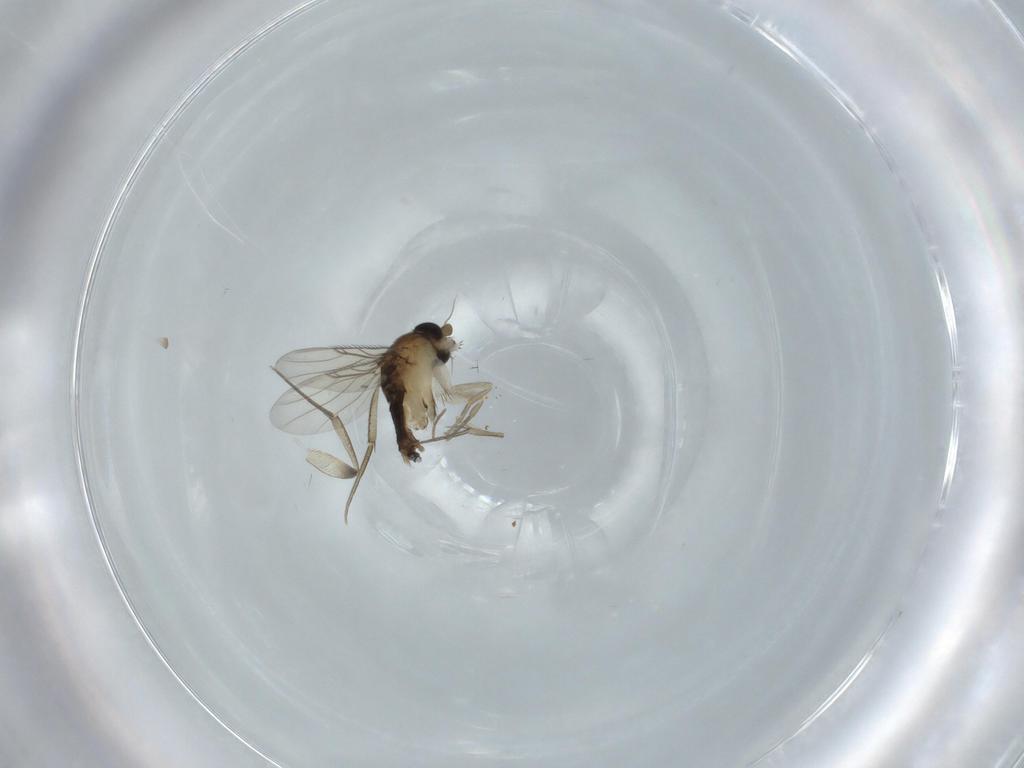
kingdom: Animalia
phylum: Arthropoda
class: Insecta
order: Diptera
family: Phoridae
